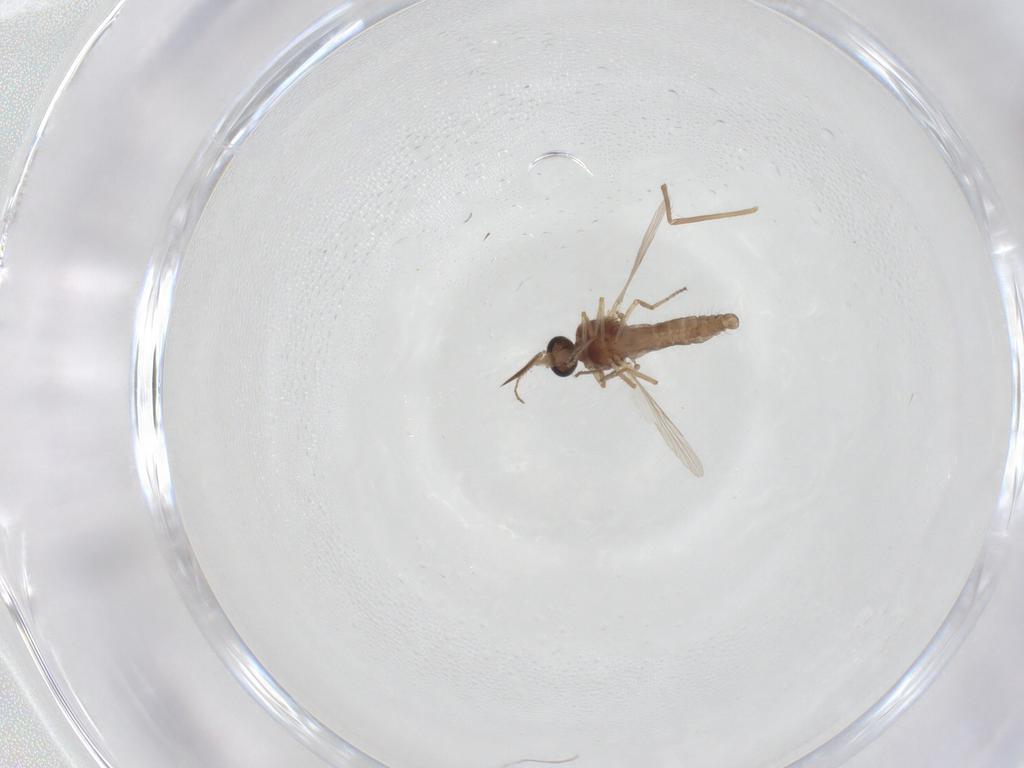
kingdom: Animalia
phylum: Arthropoda
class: Insecta
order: Diptera
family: Ceratopogonidae
